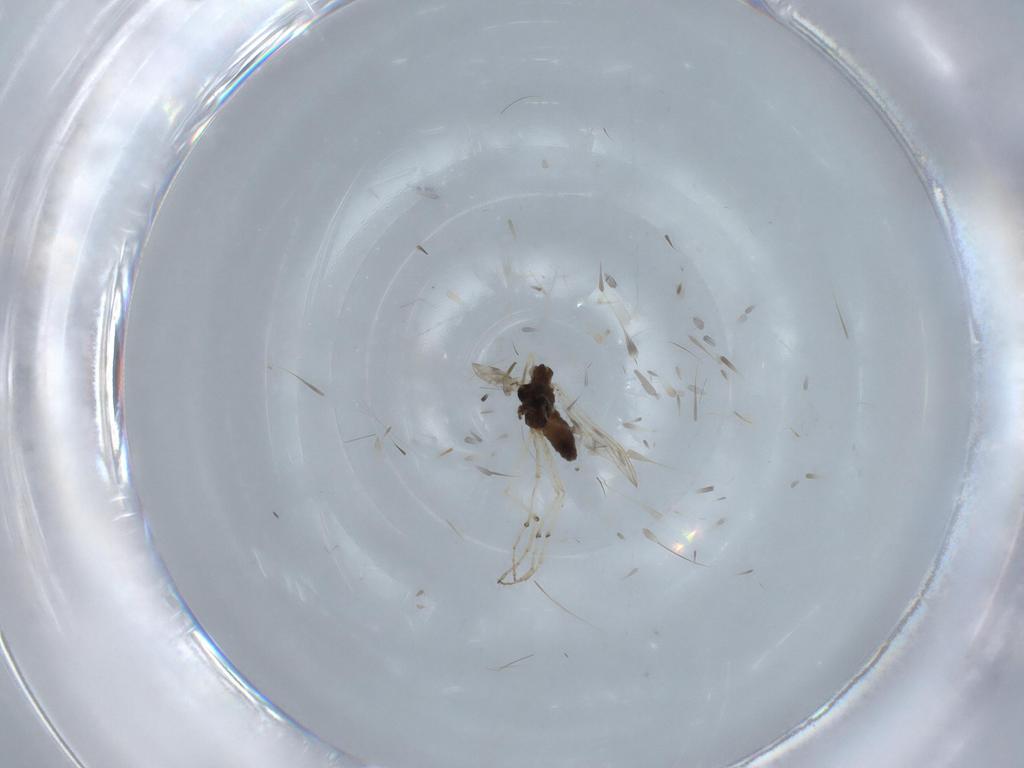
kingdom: Animalia
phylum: Arthropoda
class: Insecta
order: Diptera
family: Chironomidae
